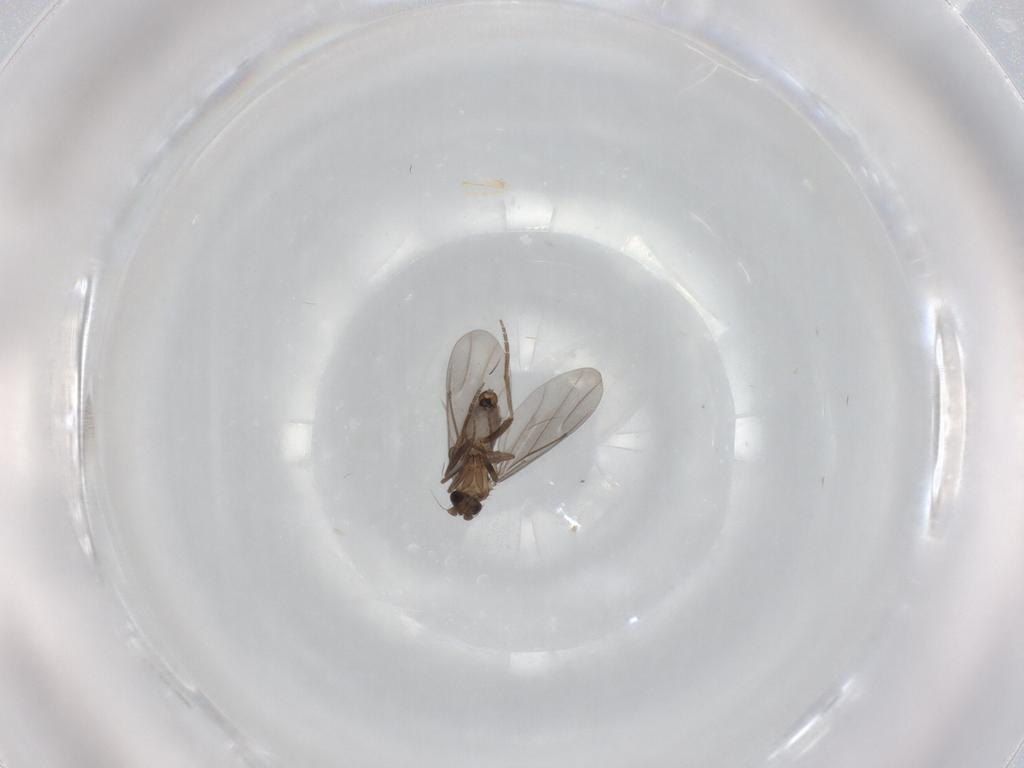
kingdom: Animalia
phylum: Arthropoda
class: Insecta
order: Diptera
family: Phoridae
